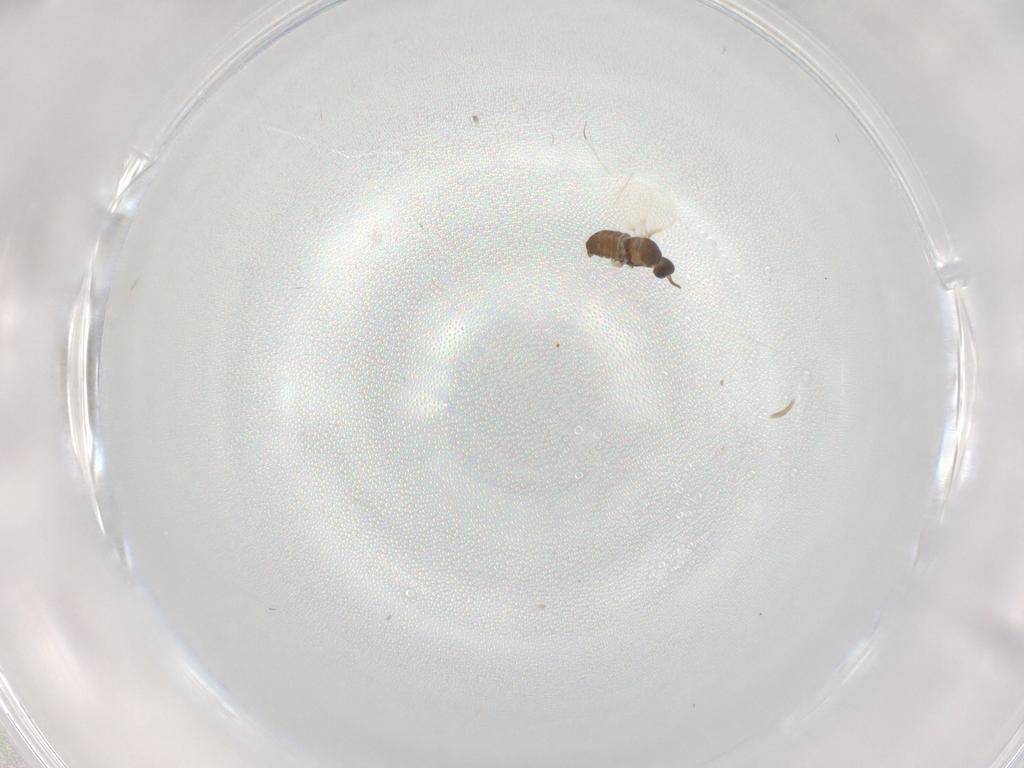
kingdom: Animalia
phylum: Arthropoda
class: Insecta
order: Diptera
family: Cecidomyiidae
